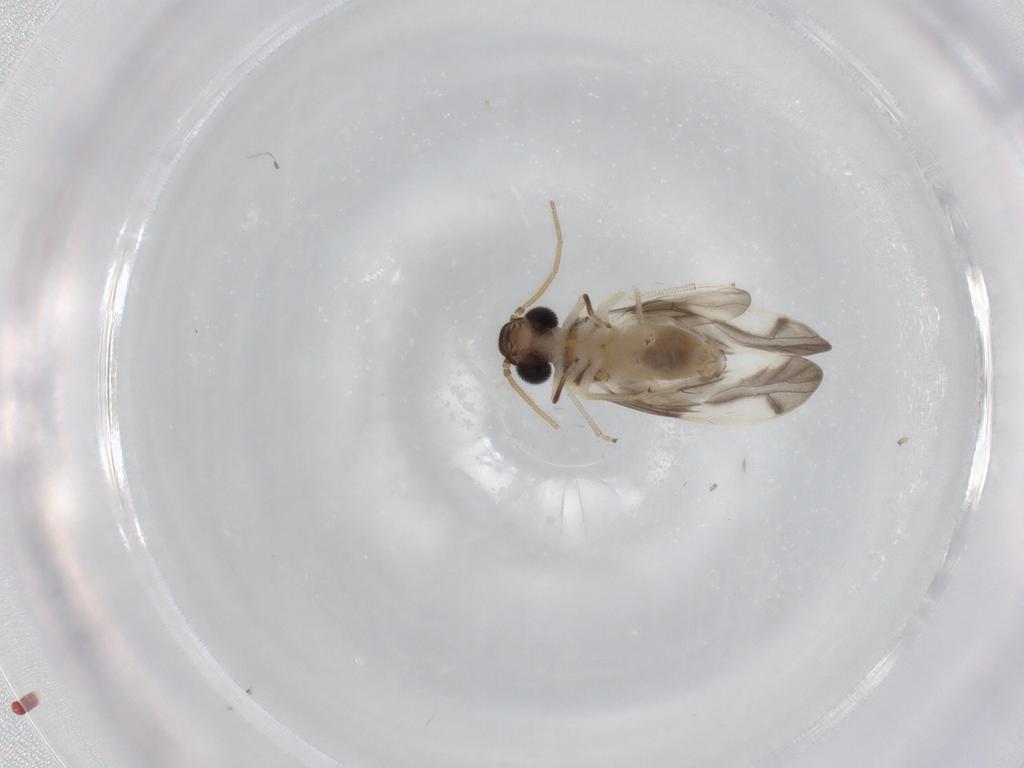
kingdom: Animalia
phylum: Arthropoda
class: Insecta
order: Psocodea
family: Caeciliusidae
